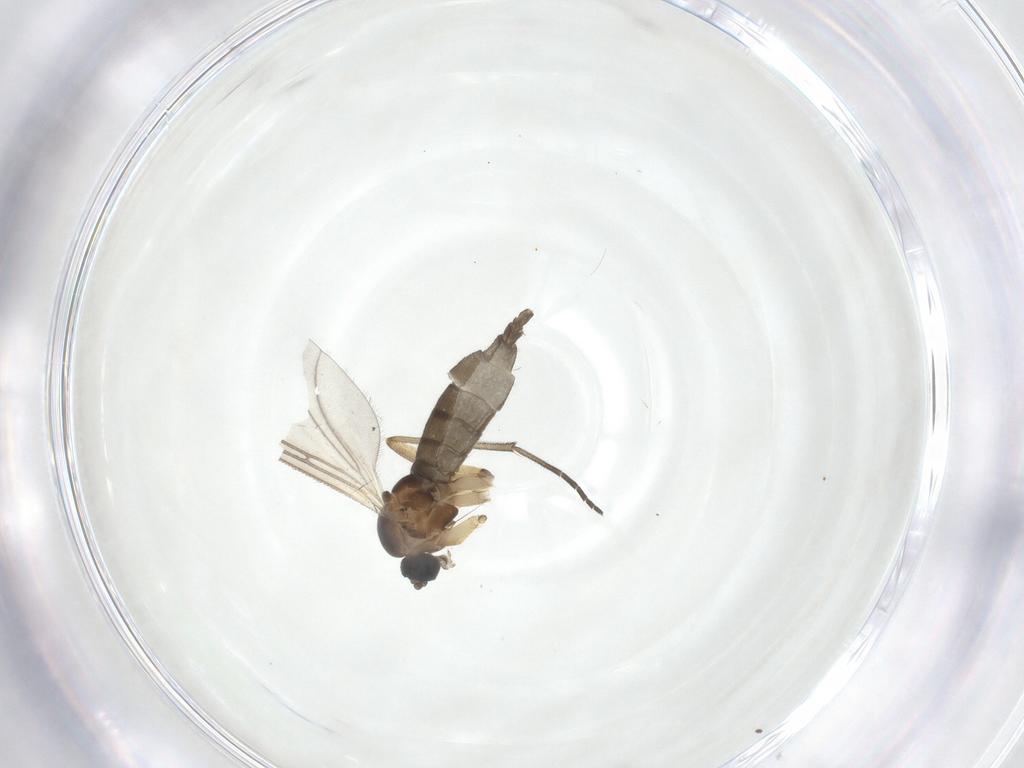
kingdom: Animalia
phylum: Arthropoda
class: Insecta
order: Diptera
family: Sciaridae
